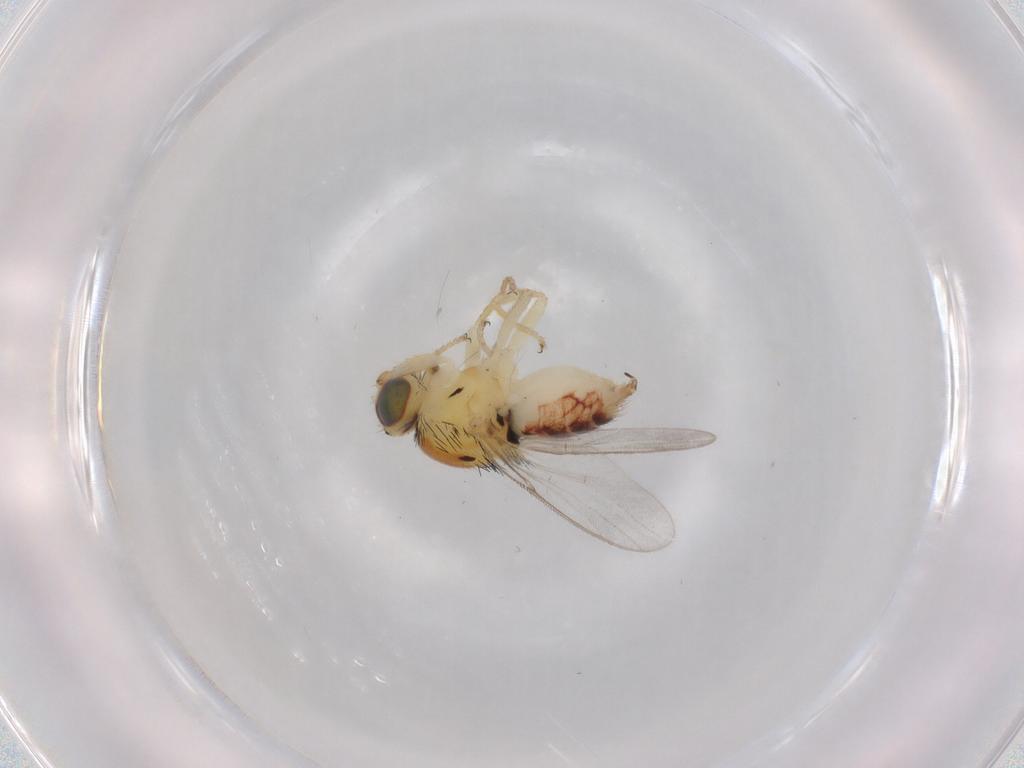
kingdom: Animalia
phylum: Arthropoda
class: Insecta
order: Diptera
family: Chloropidae
